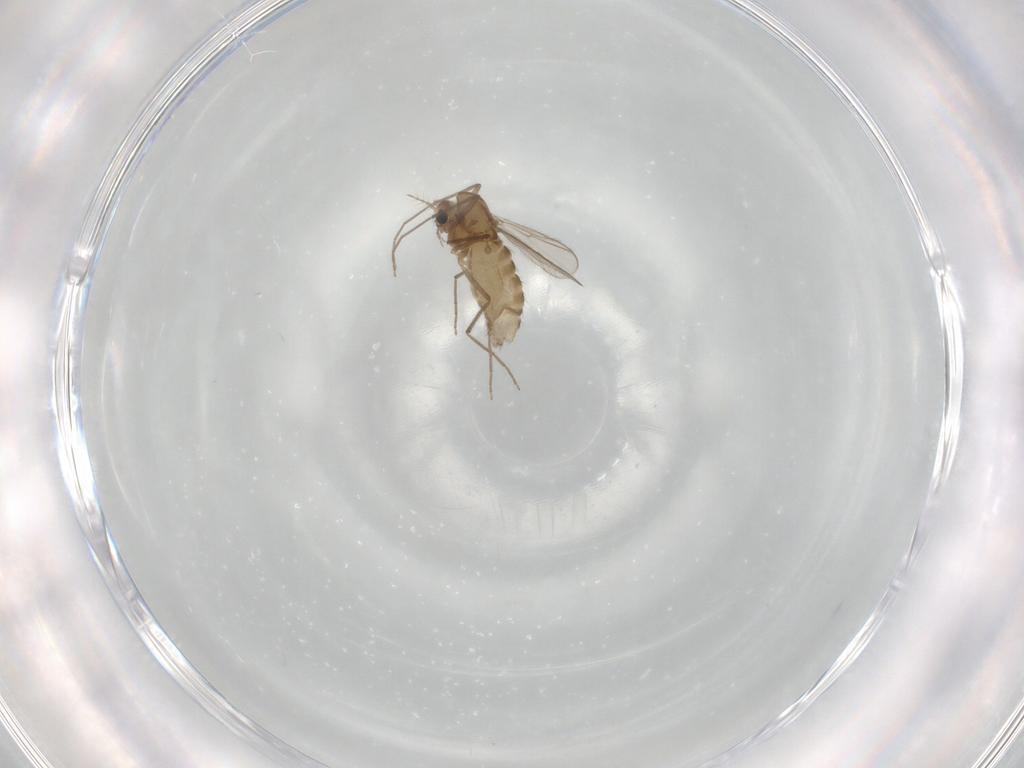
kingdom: Animalia
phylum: Arthropoda
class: Insecta
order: Diptera
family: Chironomidae
